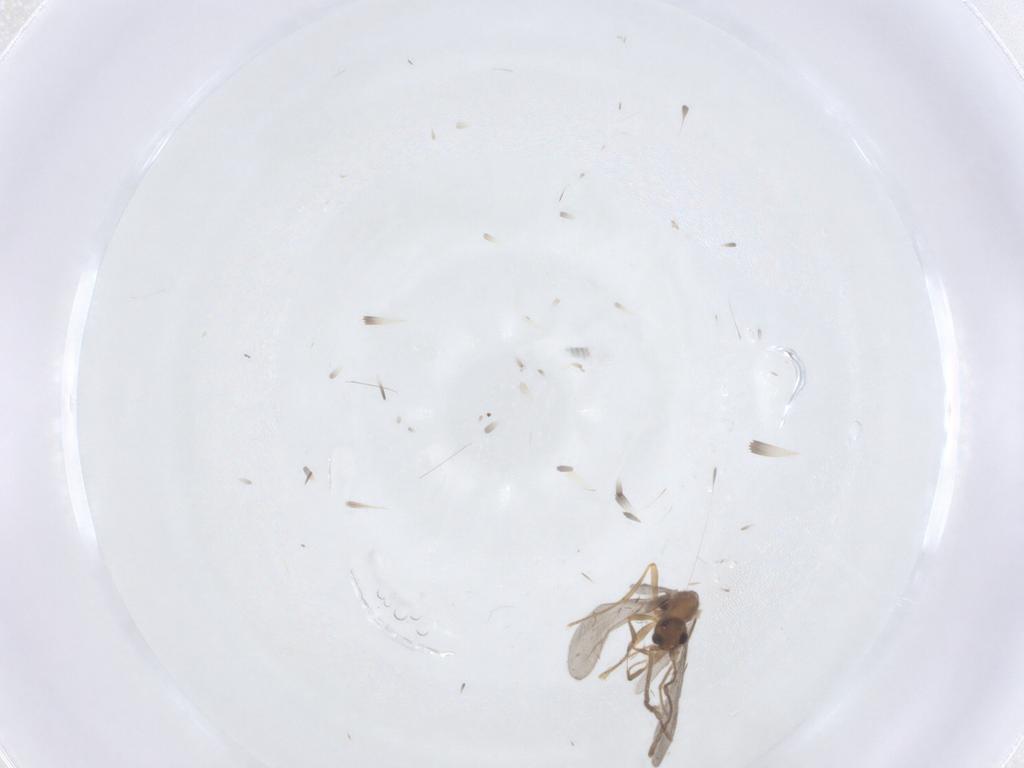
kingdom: Animalia
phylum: Arthropoda
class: Insecta
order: Hymenoptera
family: Formicidae
